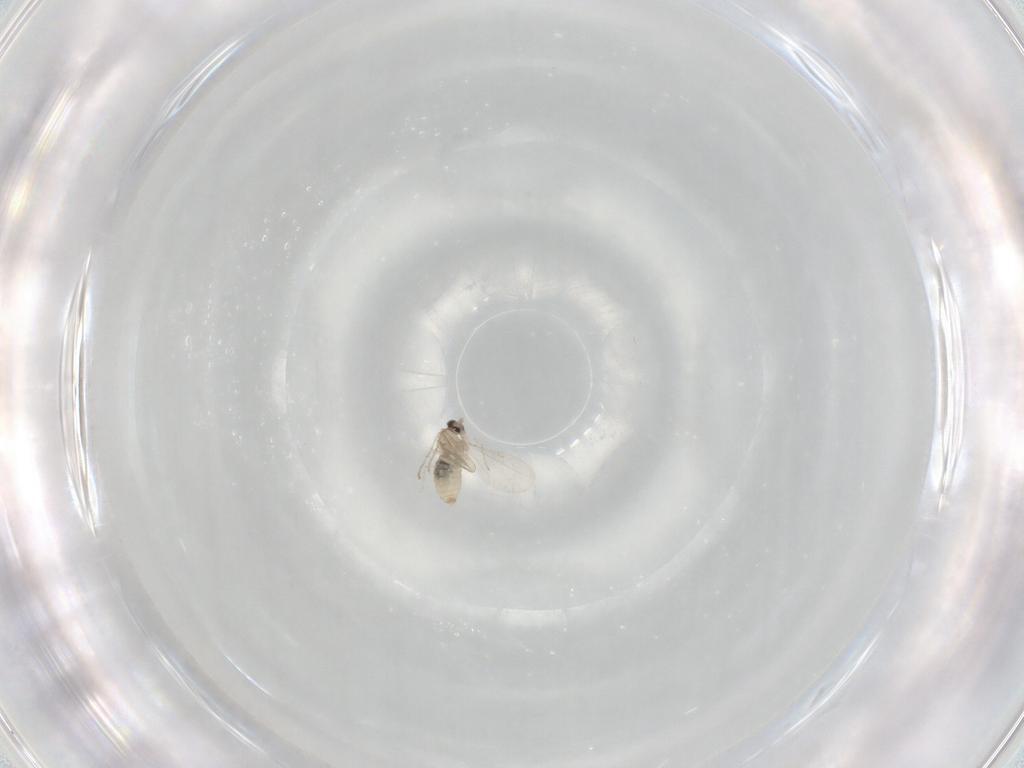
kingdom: Animalia
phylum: Arthropoda
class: Insecta
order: Diptera
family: Cecidomyiidae
